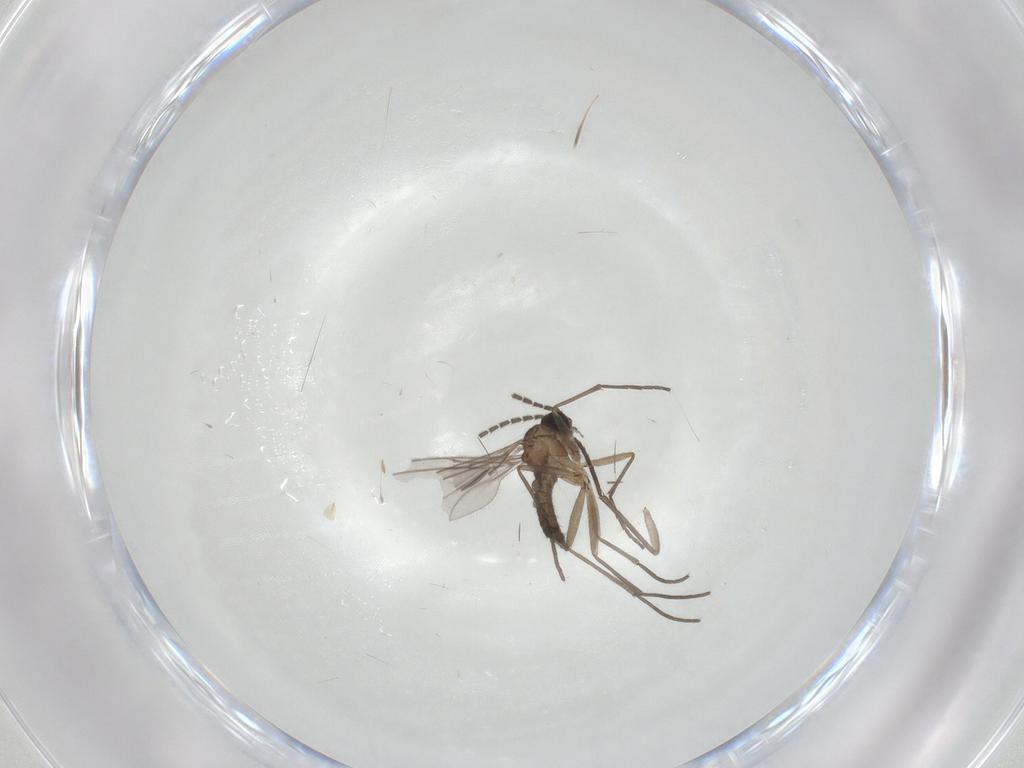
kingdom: Animalia
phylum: Arthropoda
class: Insecta
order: Diptera
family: Sciaridae
